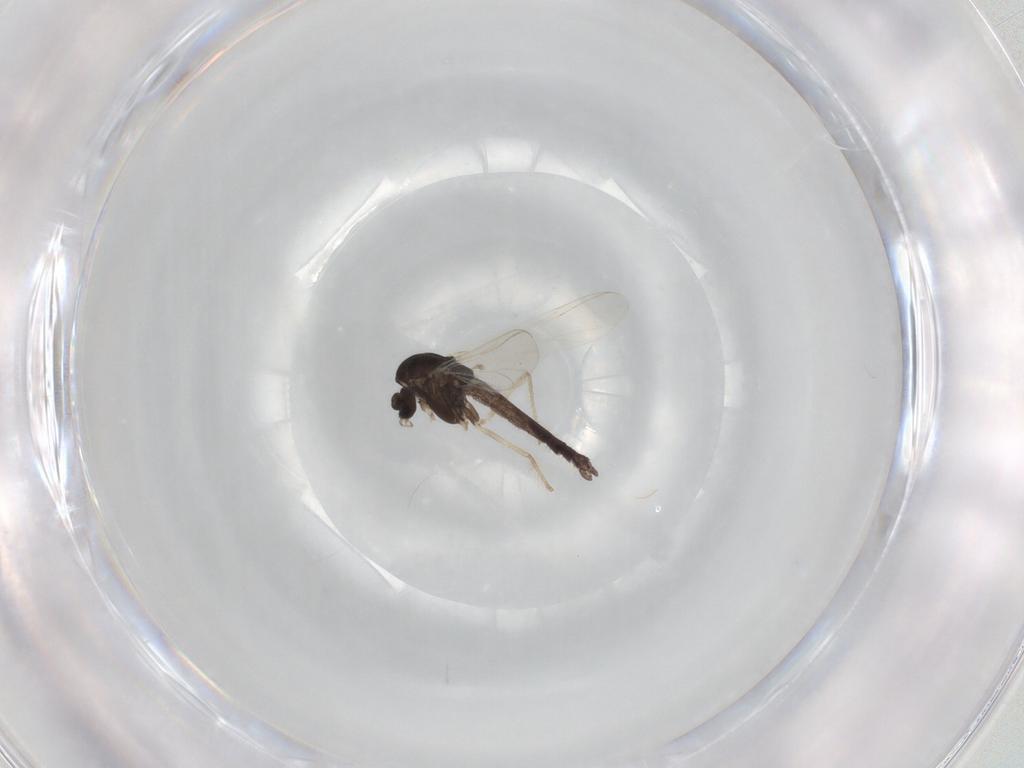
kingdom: Animalia
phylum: Arthropoda
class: Insecta
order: Diptera
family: Chironomidae
